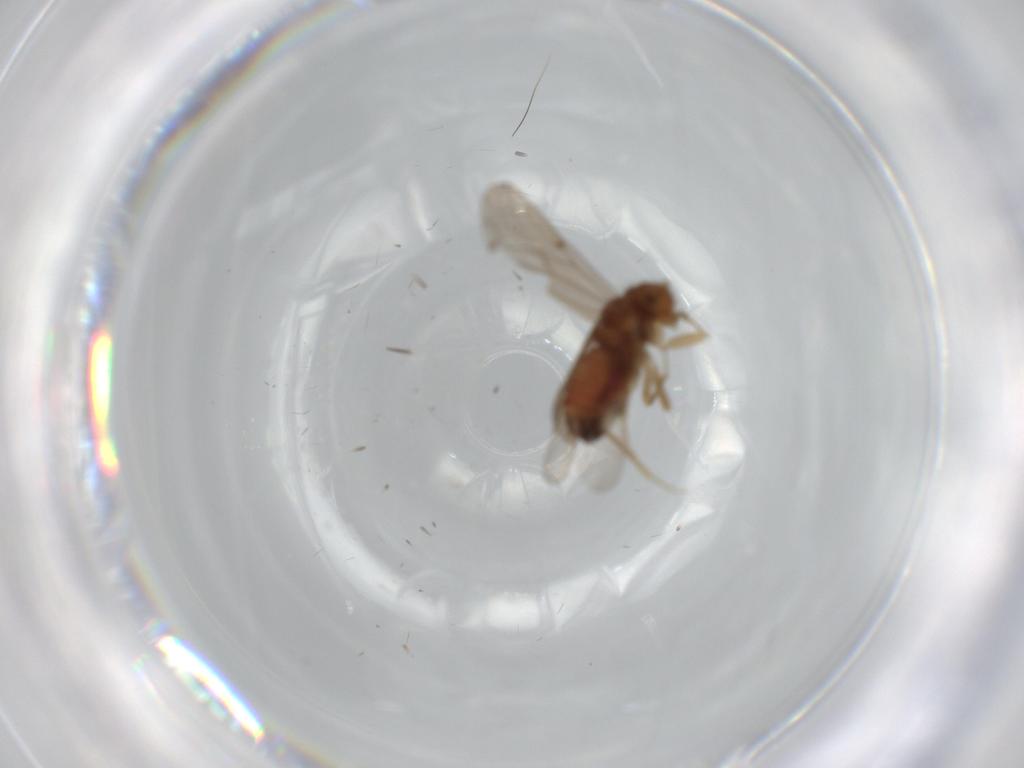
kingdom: Animalia
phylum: Arthropoda
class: Insecta
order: Psocodea
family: Ectopsocidae
